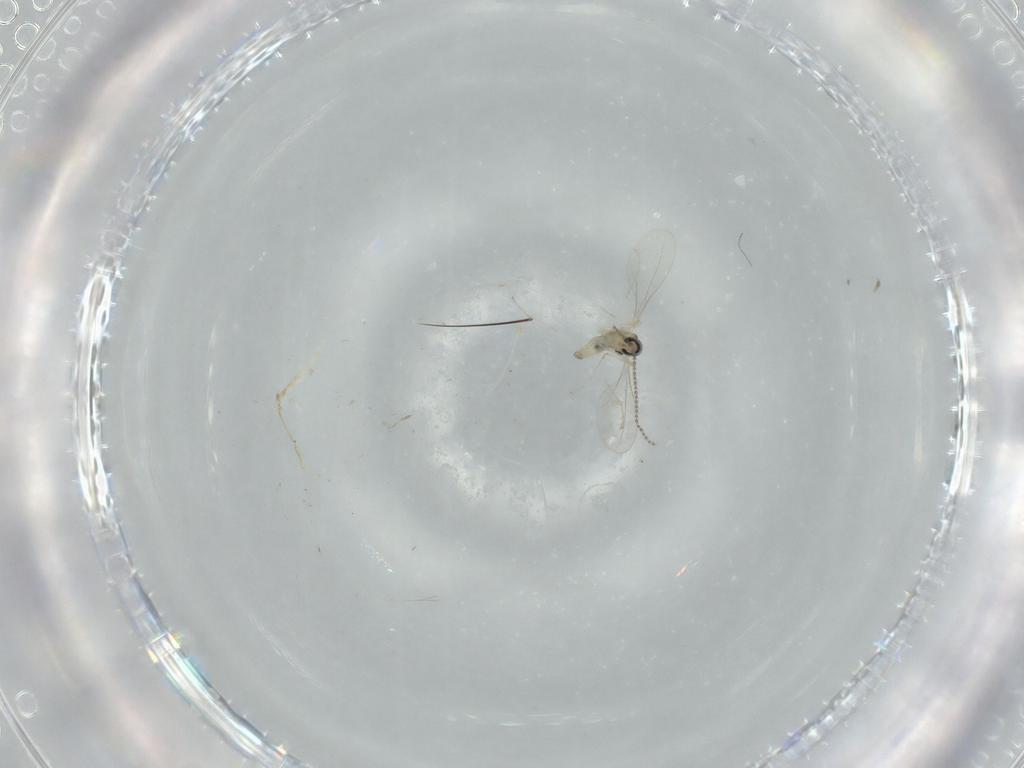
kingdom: Animalia
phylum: Arthropoda
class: Insecta
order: Diptera
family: Cecidomyiidae
